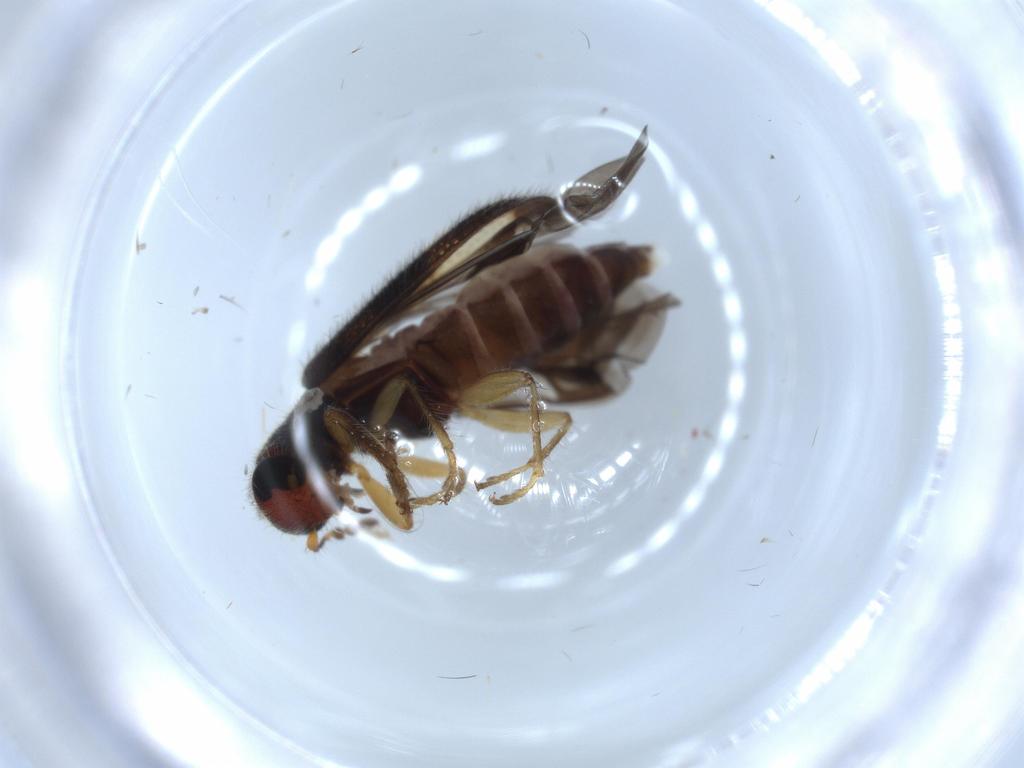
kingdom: Animalia
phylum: Arthropoda
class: Insecta
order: Coleoptera
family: Cleridae
